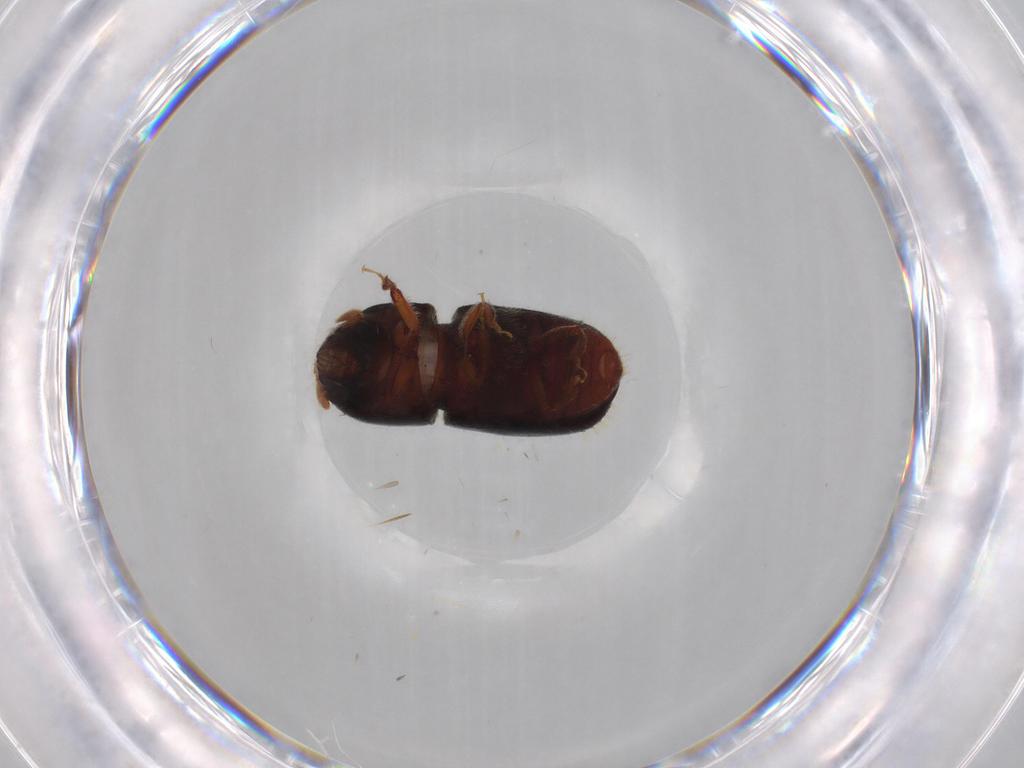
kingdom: Animalia
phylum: Arthropoda
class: Insecta
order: Coleoptera
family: Curculionidae
